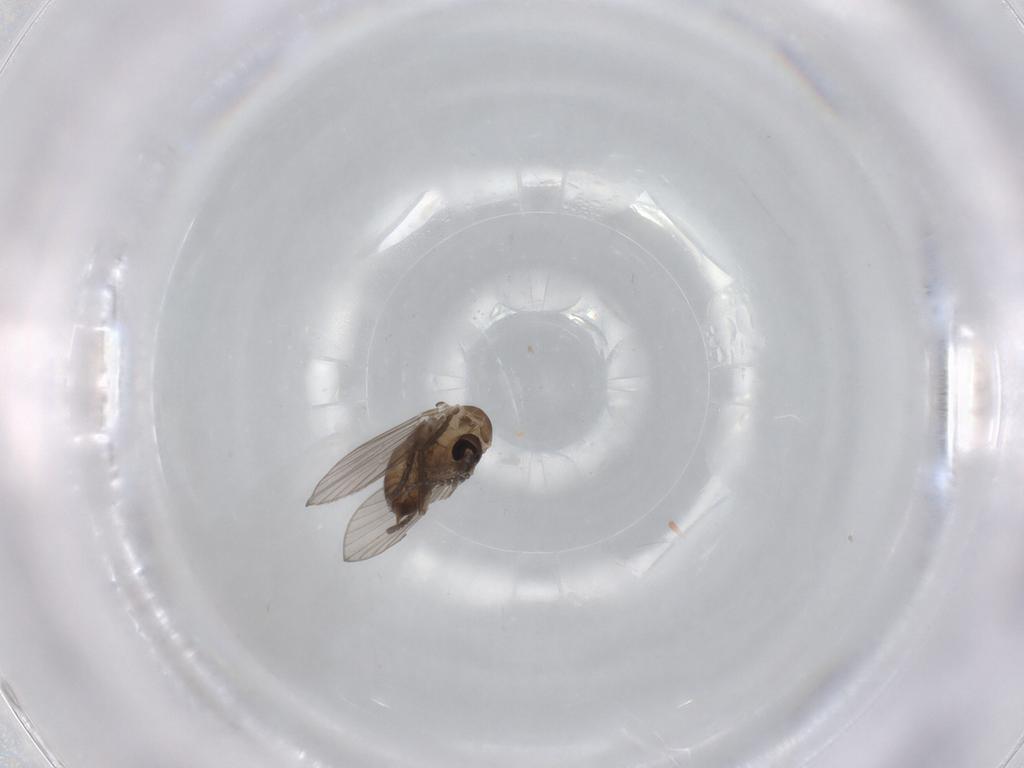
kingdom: Animalia
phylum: Arthropoda
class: Insecta
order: Diptera
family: Psychodidae
